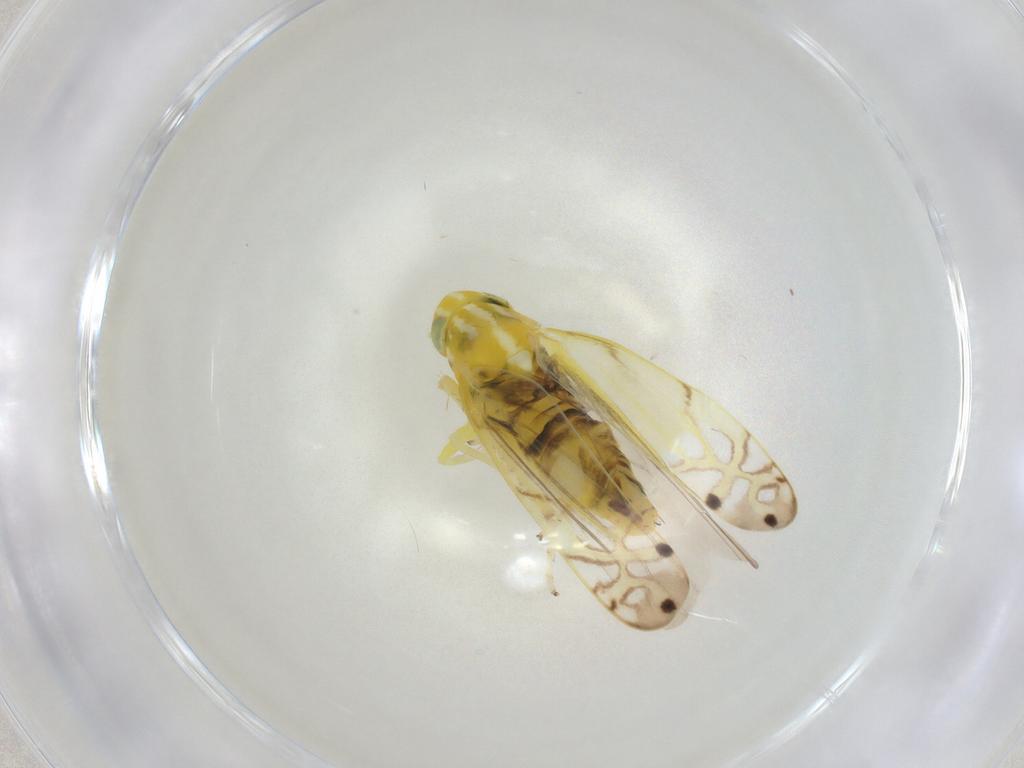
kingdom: Animalia
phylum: Arthropoda
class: Insecta
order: Hemiptera
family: Cicadellidae
